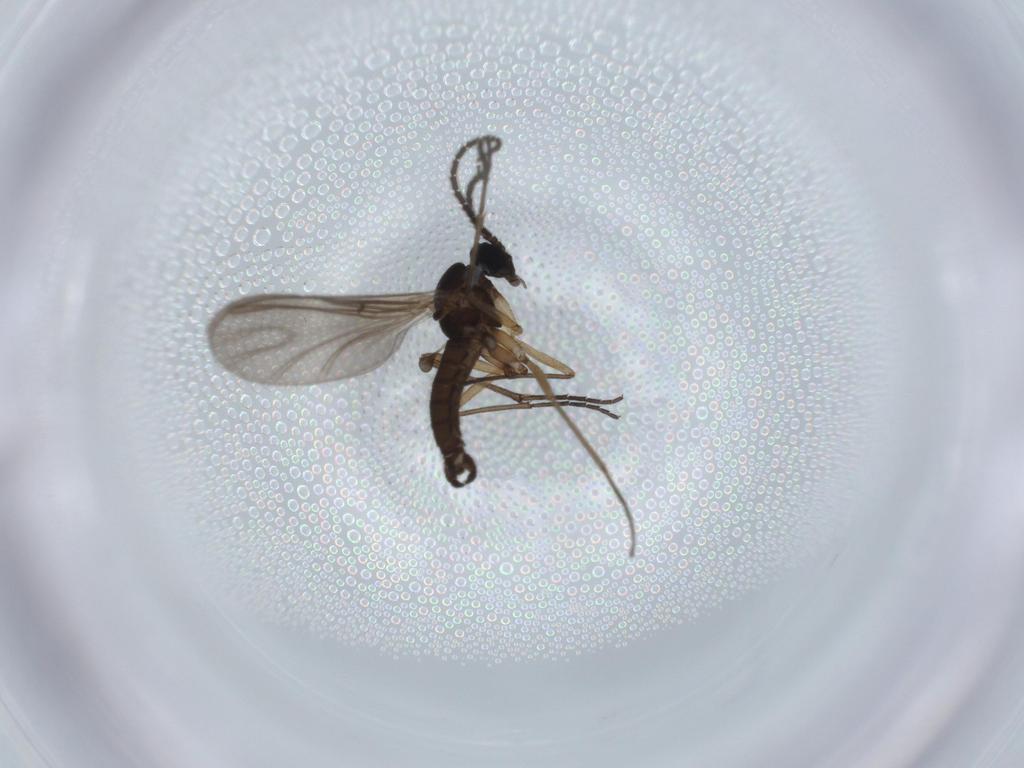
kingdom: Animalia
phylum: Arthropoda
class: Insecta
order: Diptera
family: Sciaridae
